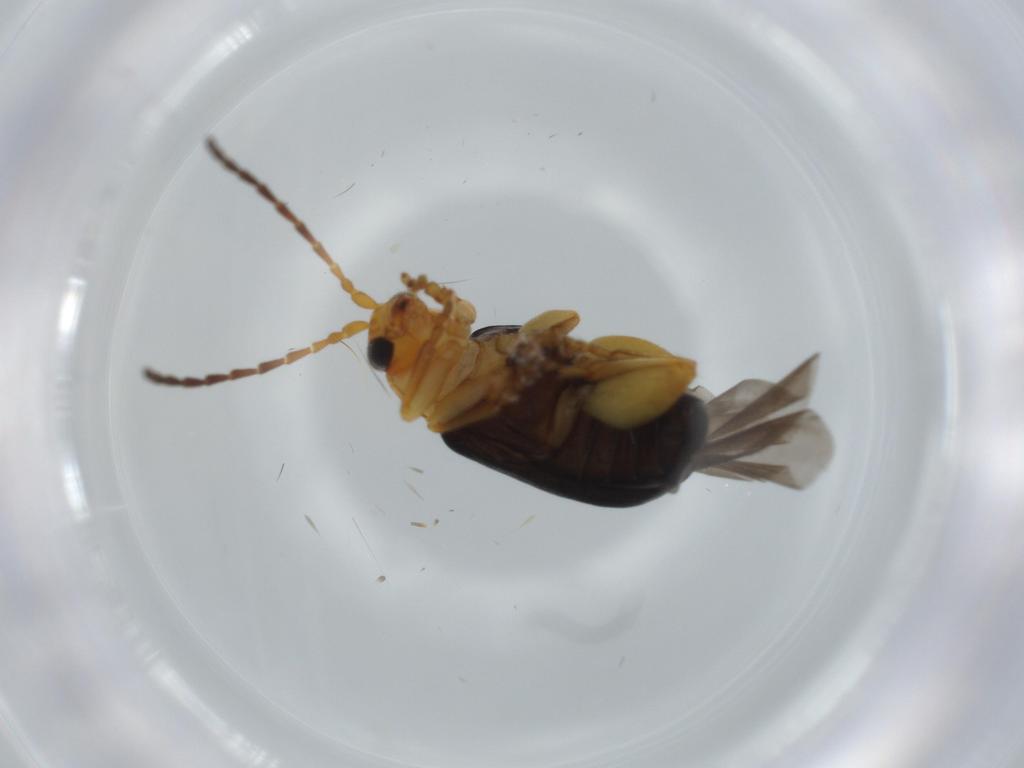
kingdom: Animalia
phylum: Arthropoda
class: Insecta
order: Coleoptera
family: Chrysomelidae
